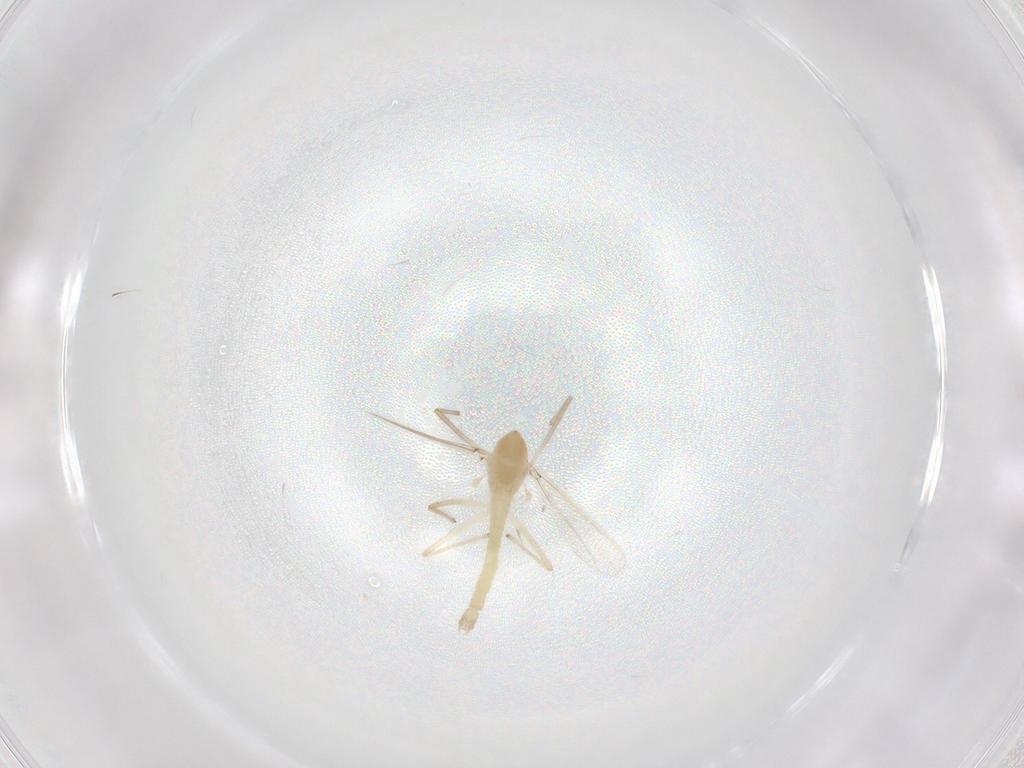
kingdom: Animalia
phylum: Arthropoda
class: Insecta
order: Diptera
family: Chironomidae
